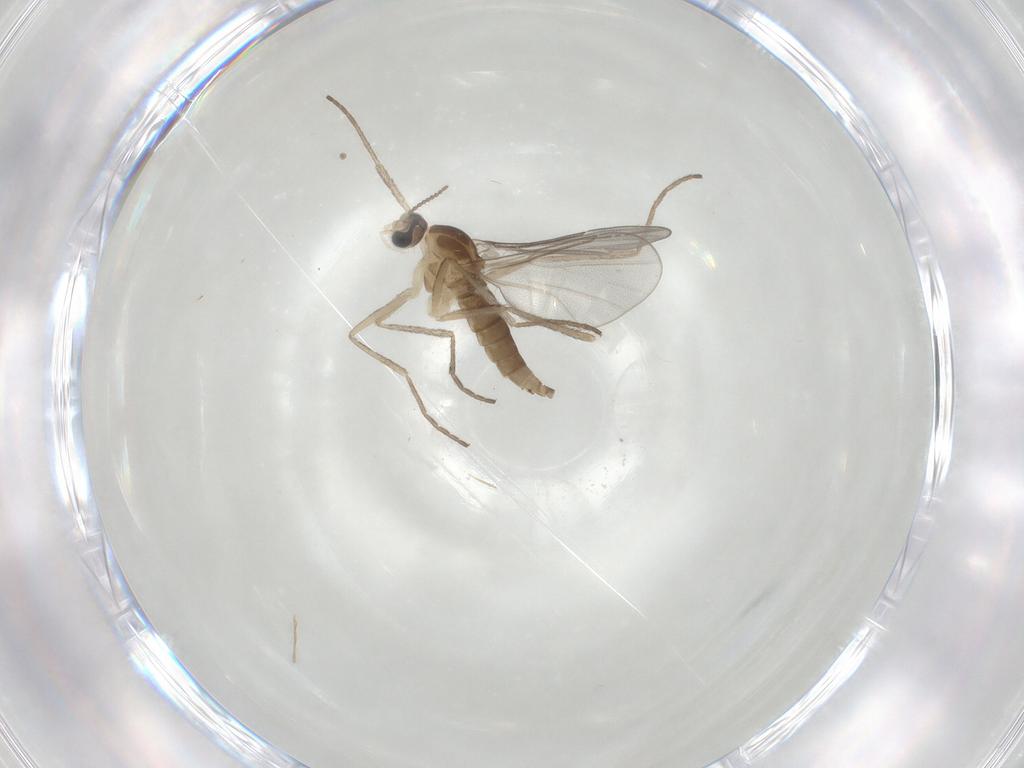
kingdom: Animalia
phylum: Arthropoda
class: Insecta
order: Diptera
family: Cecidomyiidae
